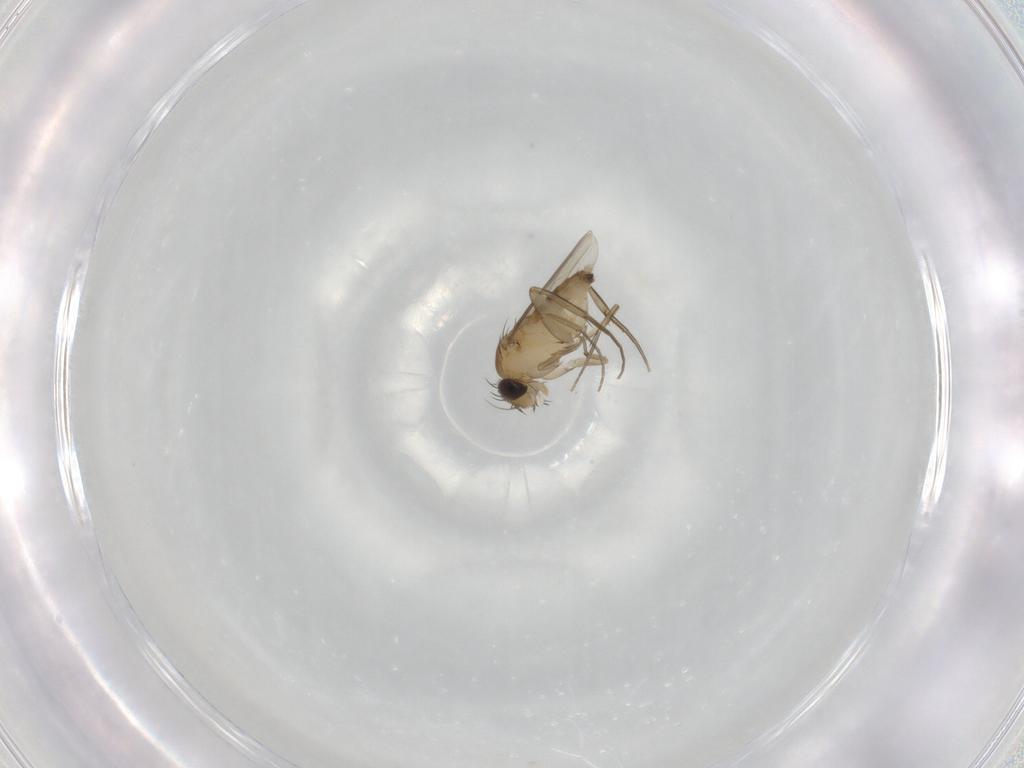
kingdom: Animalia
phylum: Arthropoda
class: Insecta
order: Diptera
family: Phoridae
